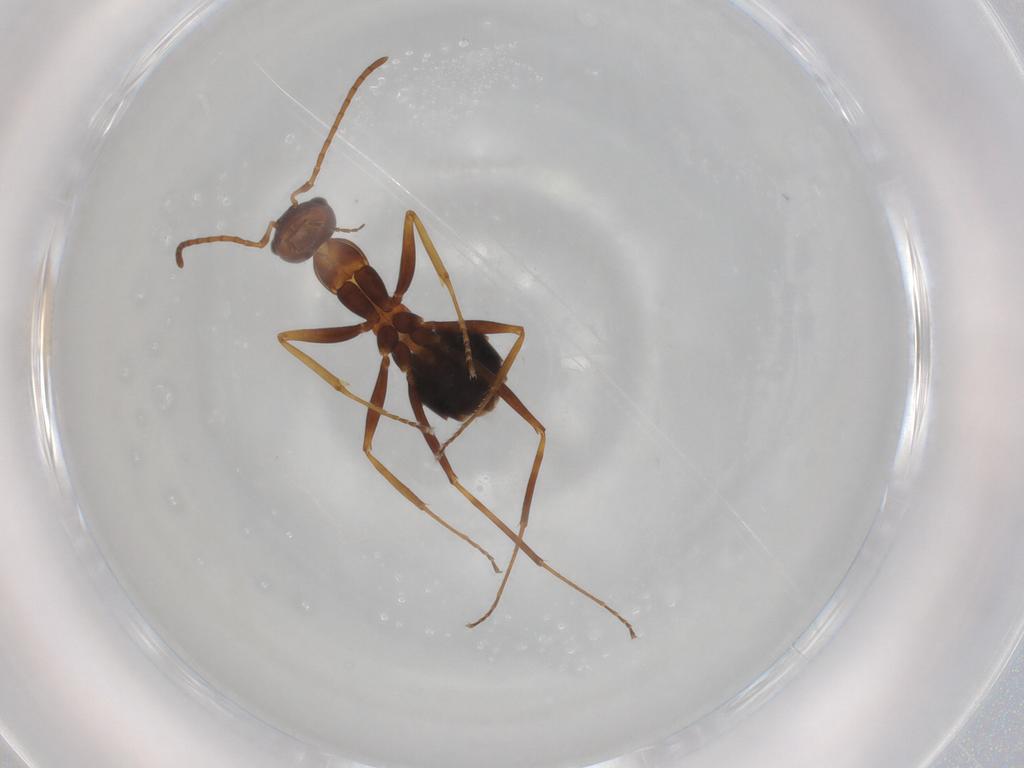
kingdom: Animalia
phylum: Arthropoda
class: Insecta
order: Hymenoptera
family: Formicidae
